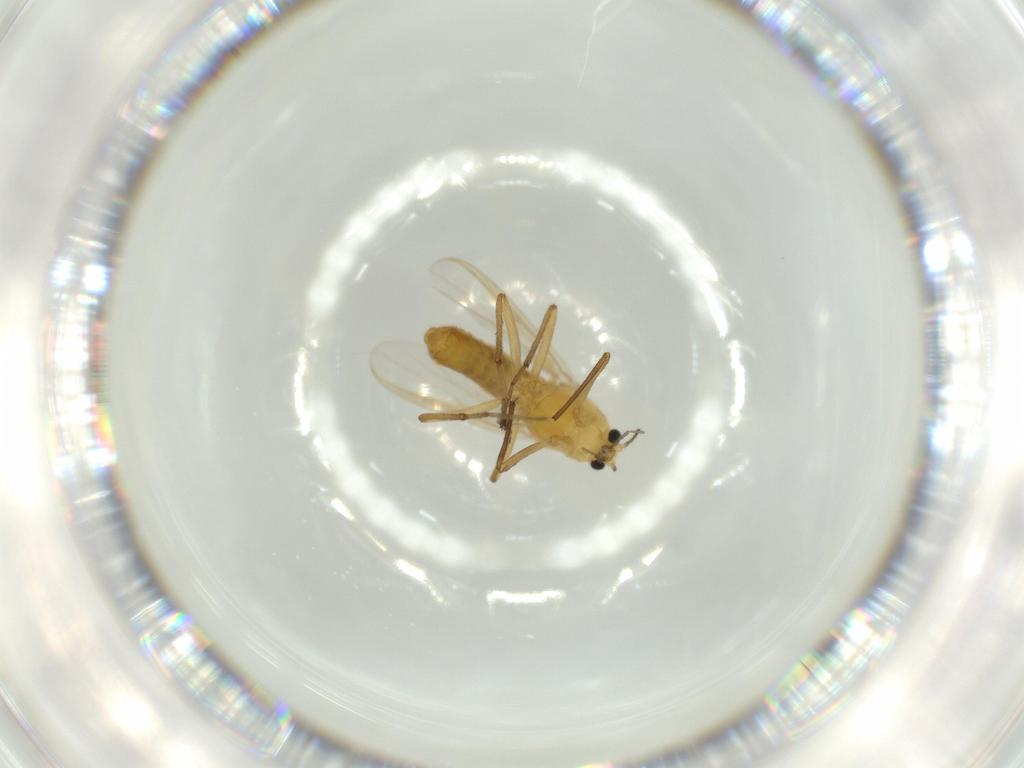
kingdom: Animalia
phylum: Arthropoda
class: Insecta
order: Diptera
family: Chironomidae
